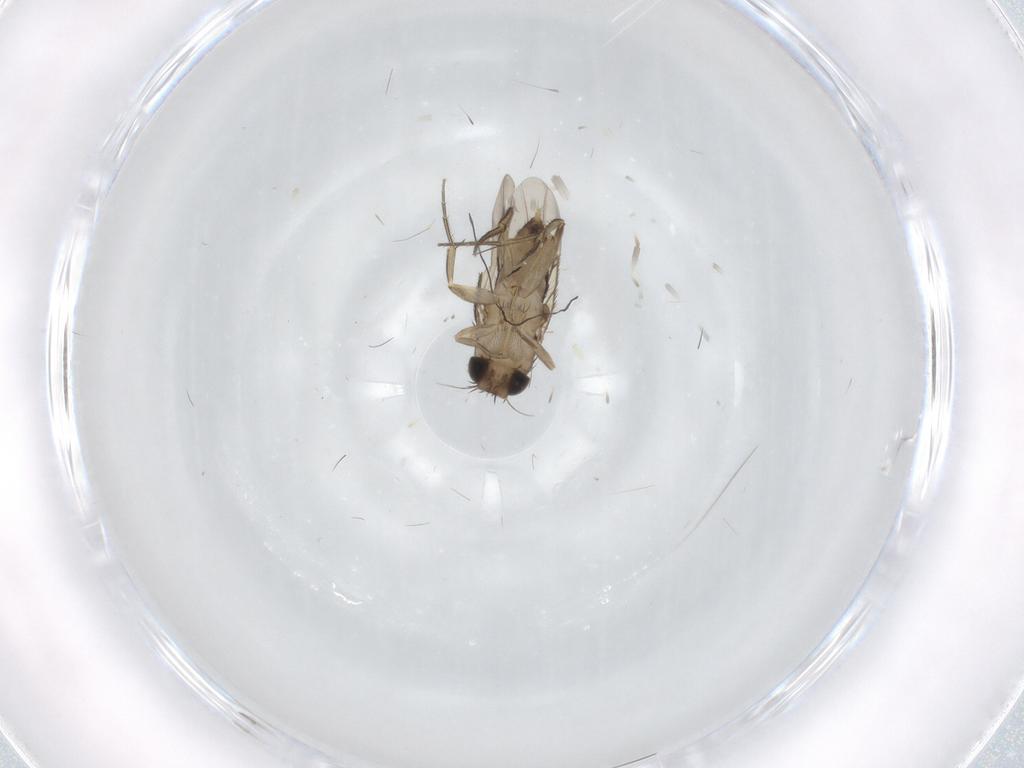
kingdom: Animalia
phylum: Arthropoda
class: Insecta
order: Diptera
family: Phoridae
